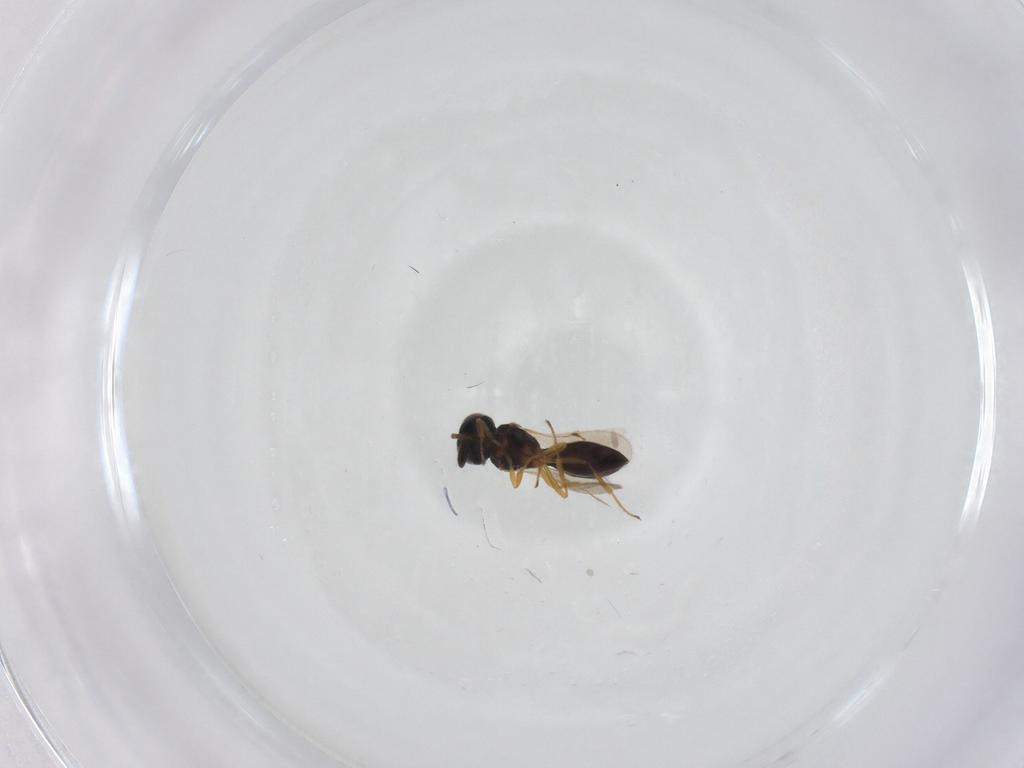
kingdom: Animalia
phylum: Arthropoda
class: Insecta
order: Hymenoptera
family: Scelionidae
